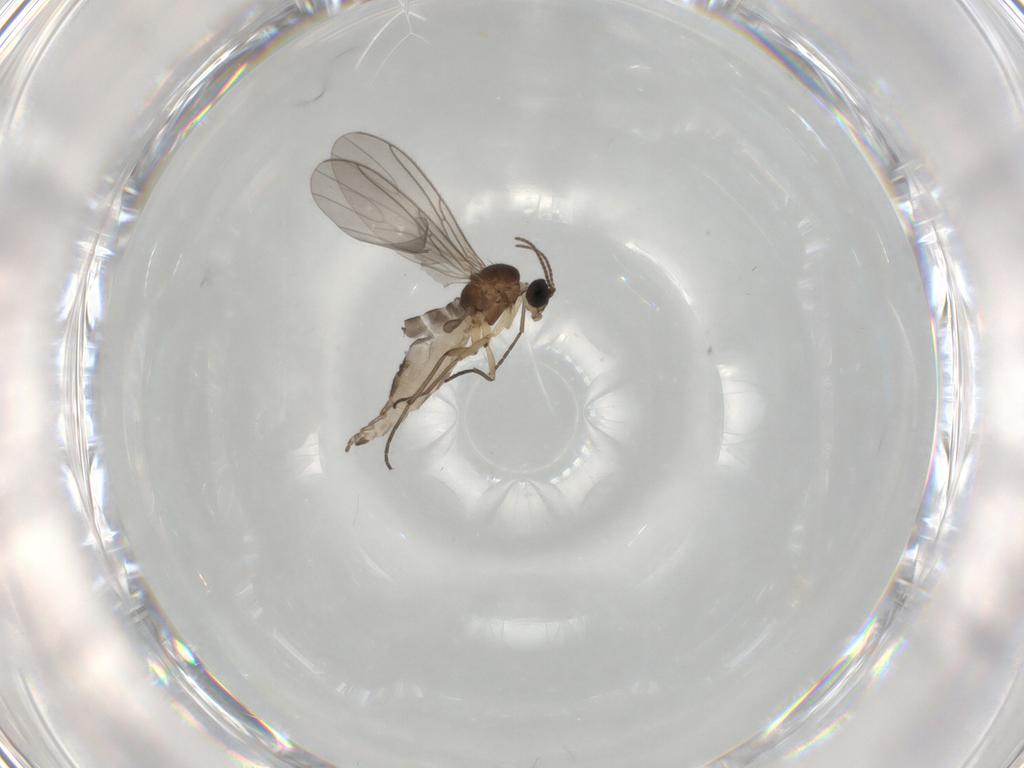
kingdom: Animalia
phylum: Arthropoda
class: Insecta
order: Diptera
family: Sciaridae
